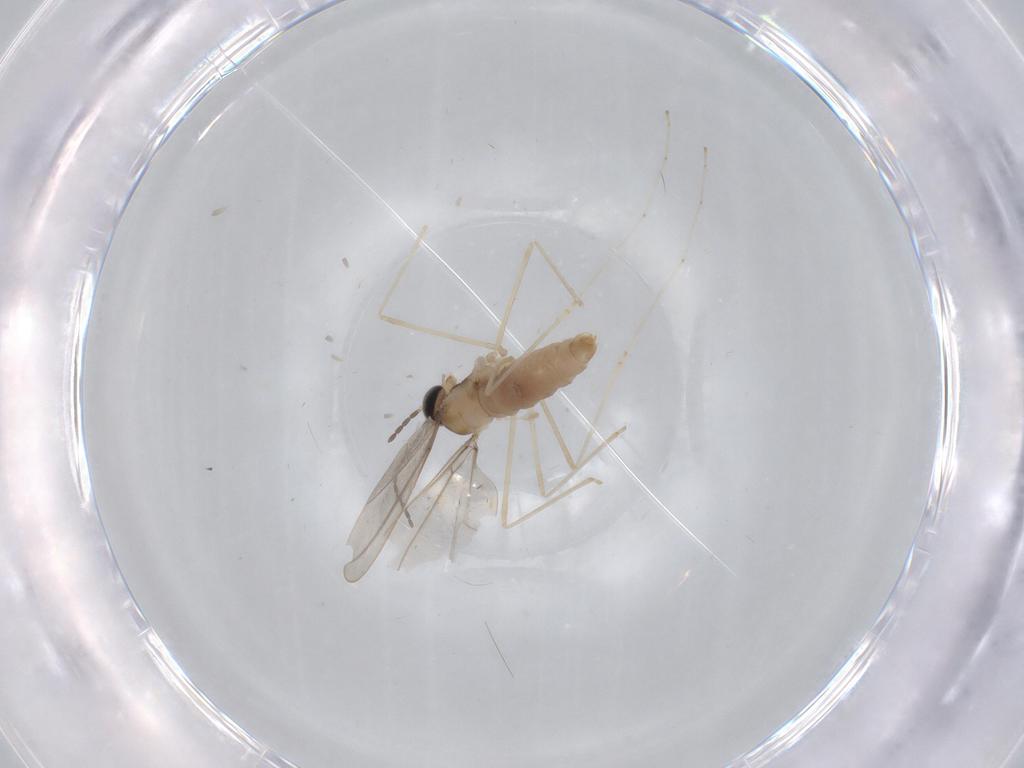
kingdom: Animalia
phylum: Arthropoda
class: Insecta
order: Diptera
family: Cecidomyiidae
